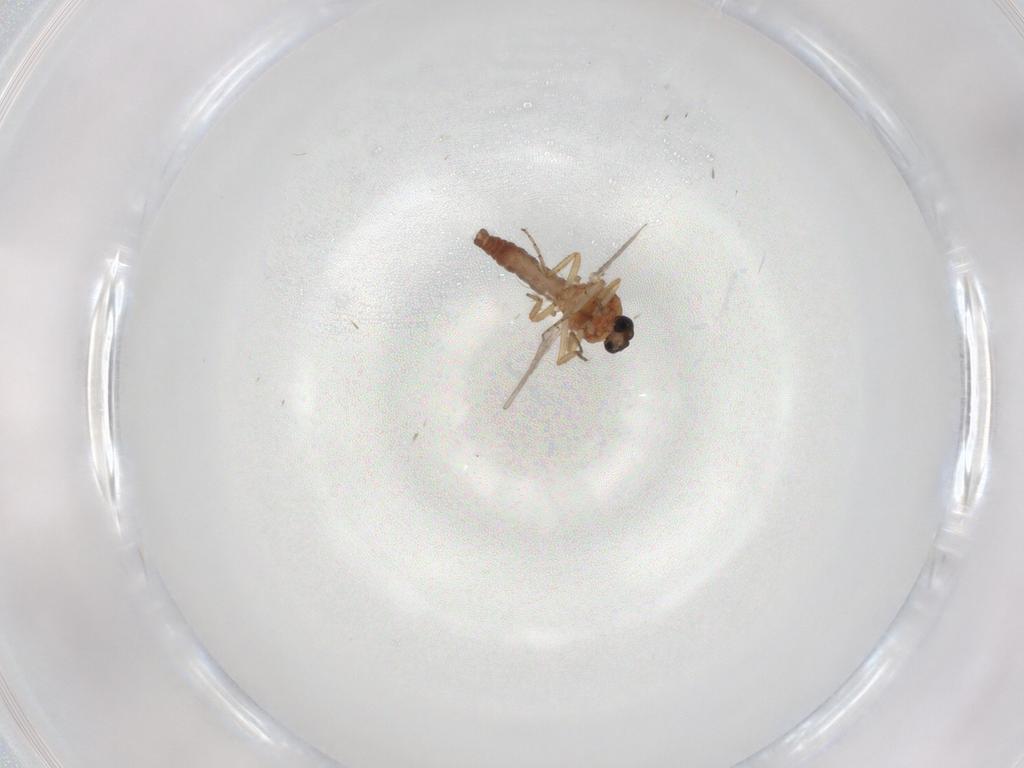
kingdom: Animalia
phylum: Arthropoda
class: Insecta
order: Diptera
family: Ceratopogonidae
